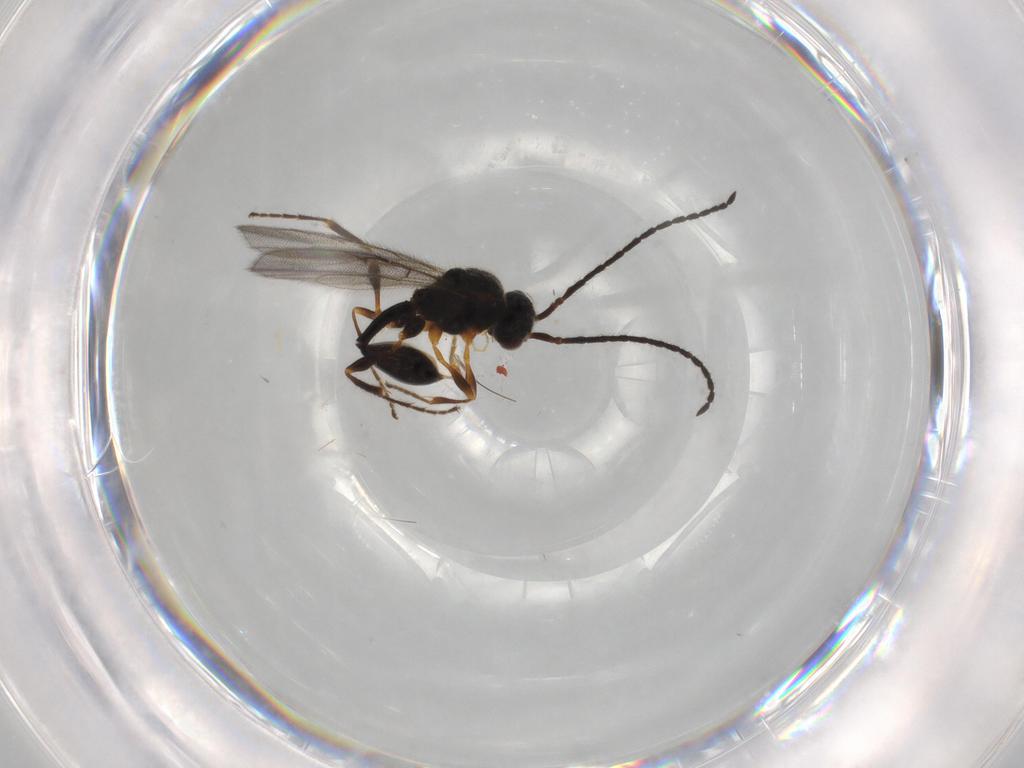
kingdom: Animalia
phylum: Arthropoda
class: Insecta
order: Hymenoptera
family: Diapriidae
